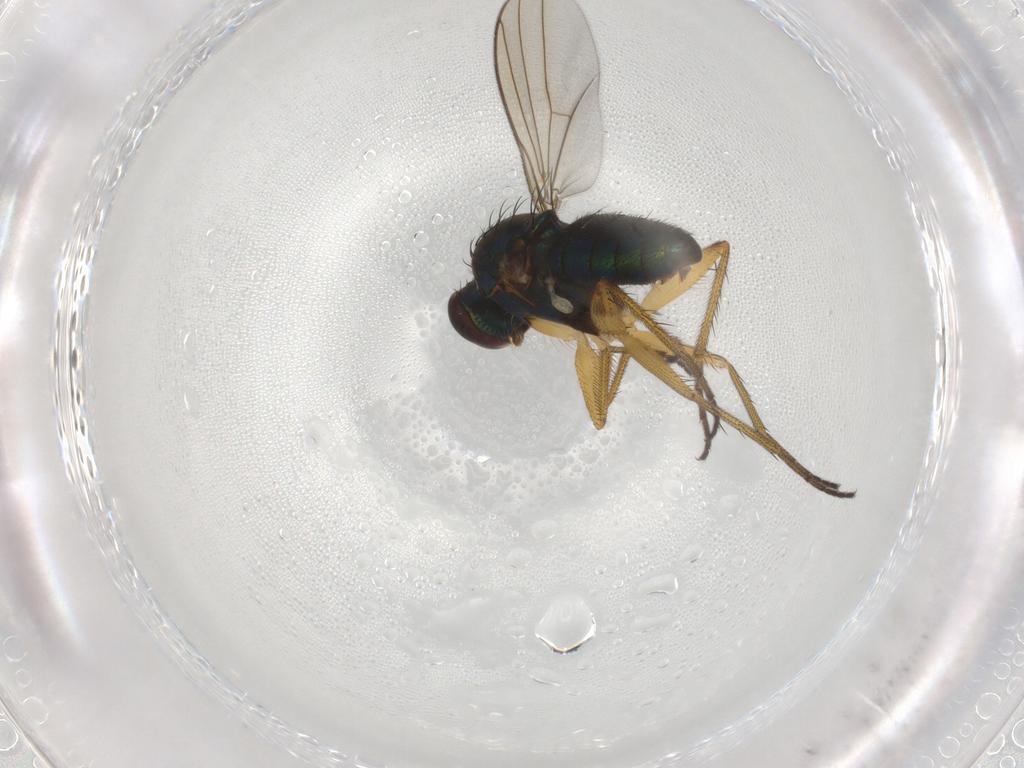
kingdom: Animalia
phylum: Arthropoda
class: Insecta
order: Diptera
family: Dolichopodidae
